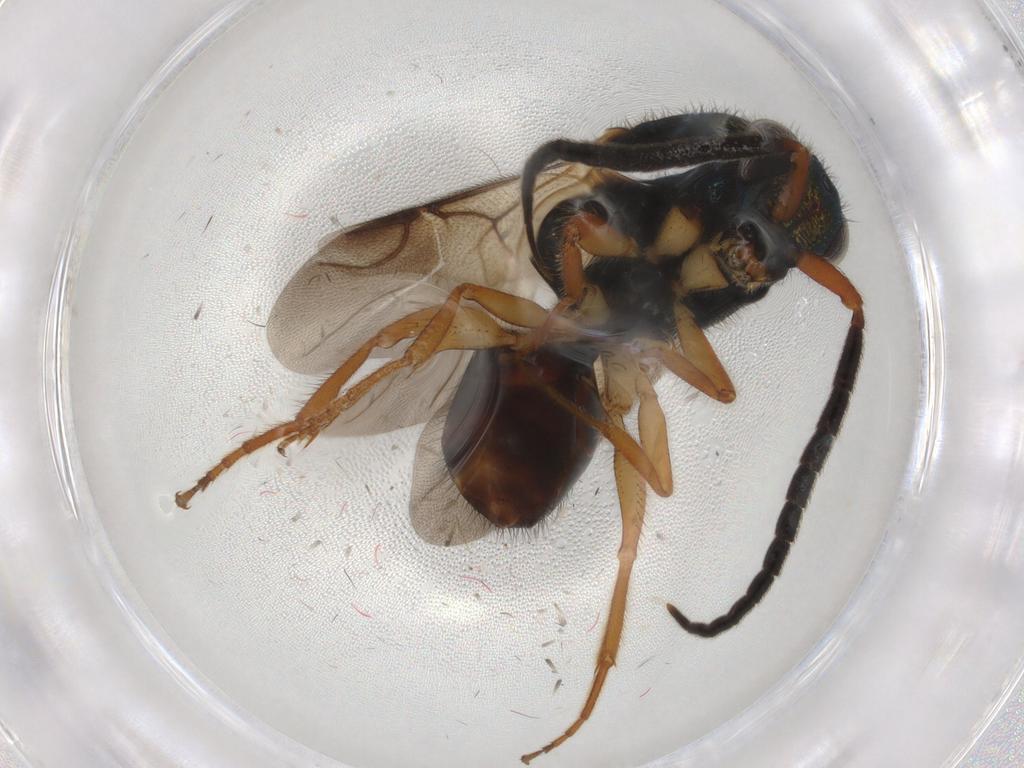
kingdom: Animalia
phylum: Arthropoda
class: Insecta
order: Hymenoptera
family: Chrysididae
